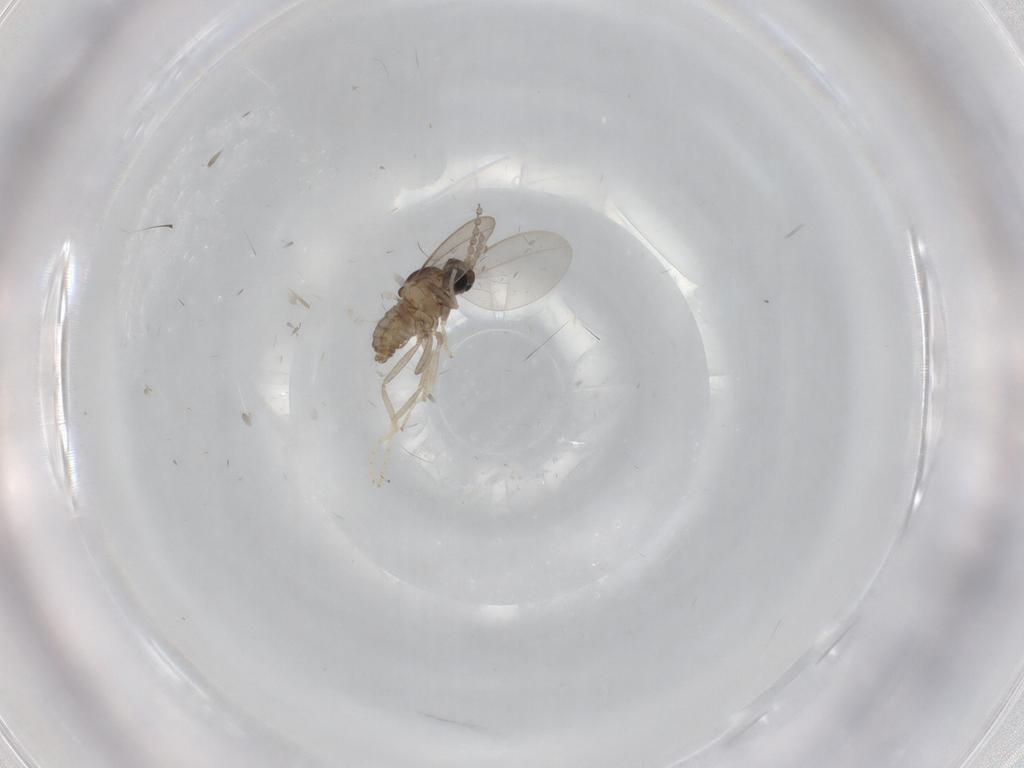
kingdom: Animalia
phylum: Arthropoda
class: Insecta
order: Diptera
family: Cecidomyiidae
